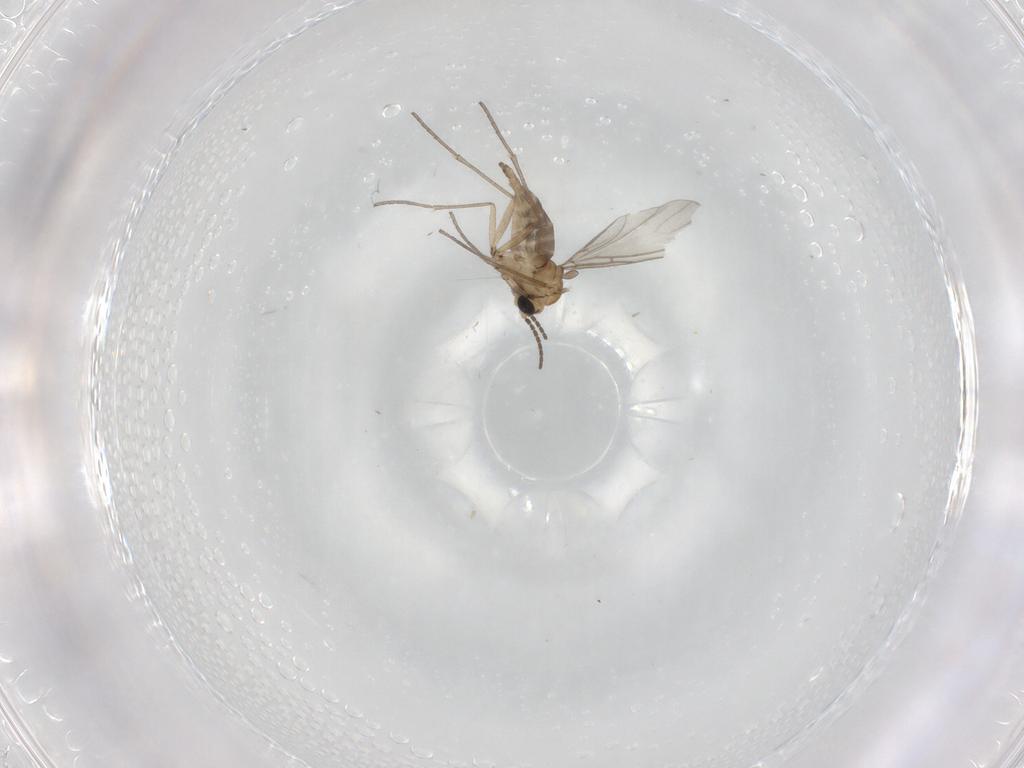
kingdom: Animalia
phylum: Arthropoda
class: Insecta
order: Diptera
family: Sciaridae
